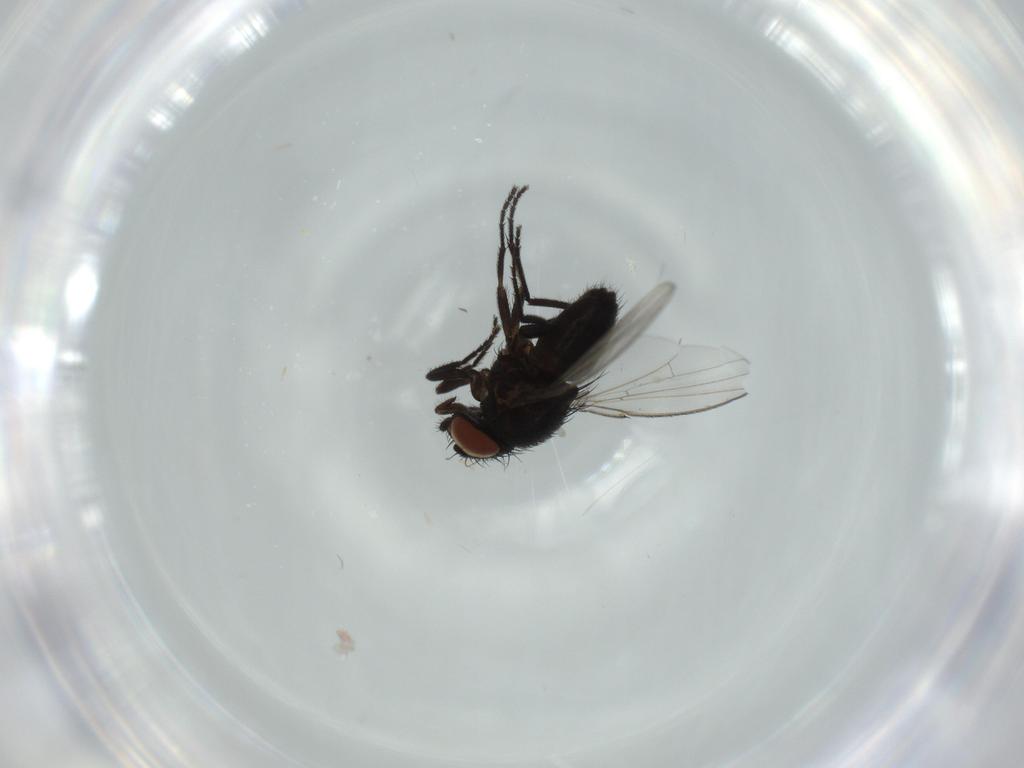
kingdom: Animalia
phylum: Arthropoda
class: Insecta
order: Diptera
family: Milichiidae
